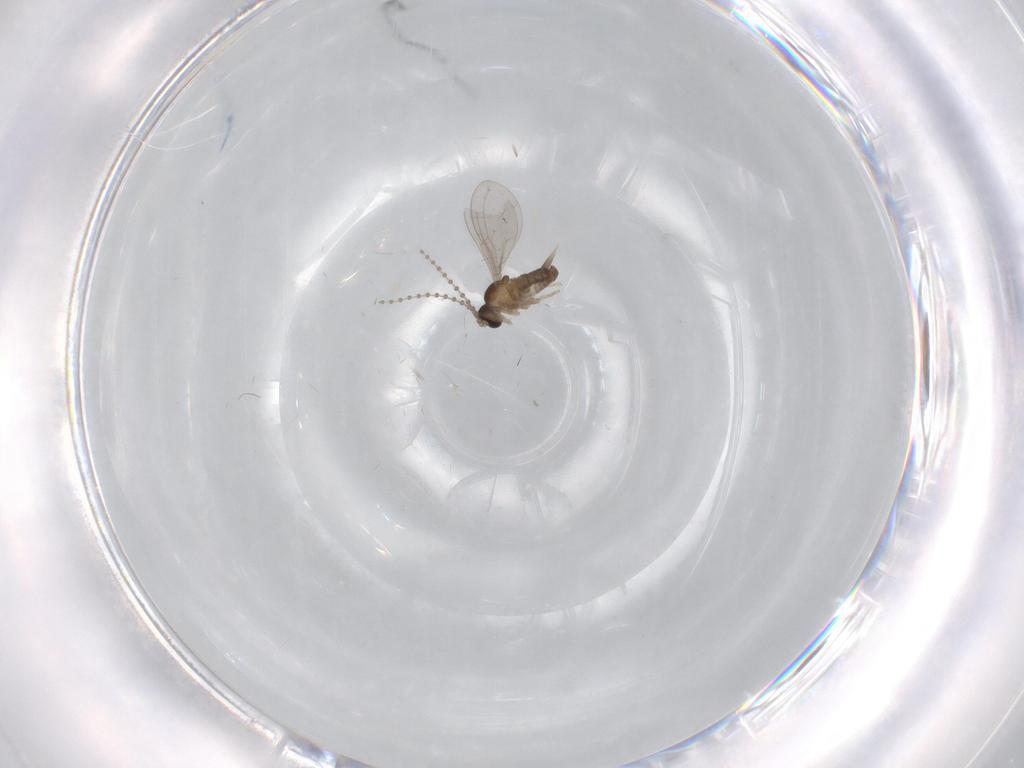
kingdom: Animalia
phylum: Arthropoda
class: Insecta
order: Diptera
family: Cecidomyiidae
